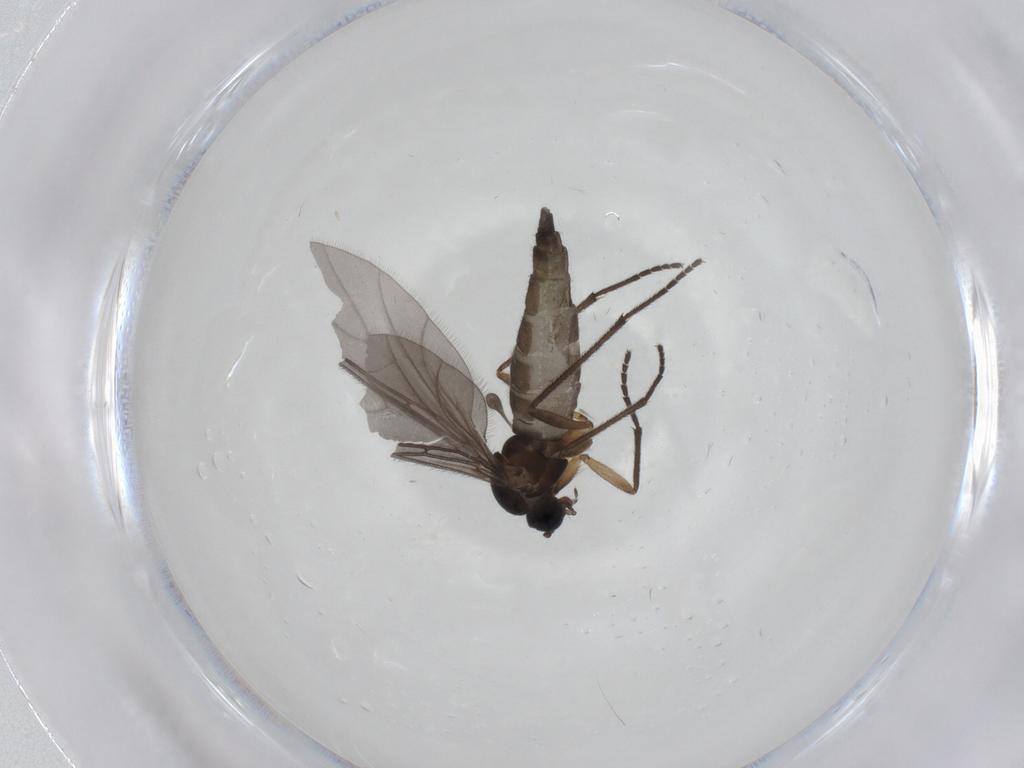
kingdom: Animalia
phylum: Arthropoda
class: Insecta
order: Diptera
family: Sciaridae
